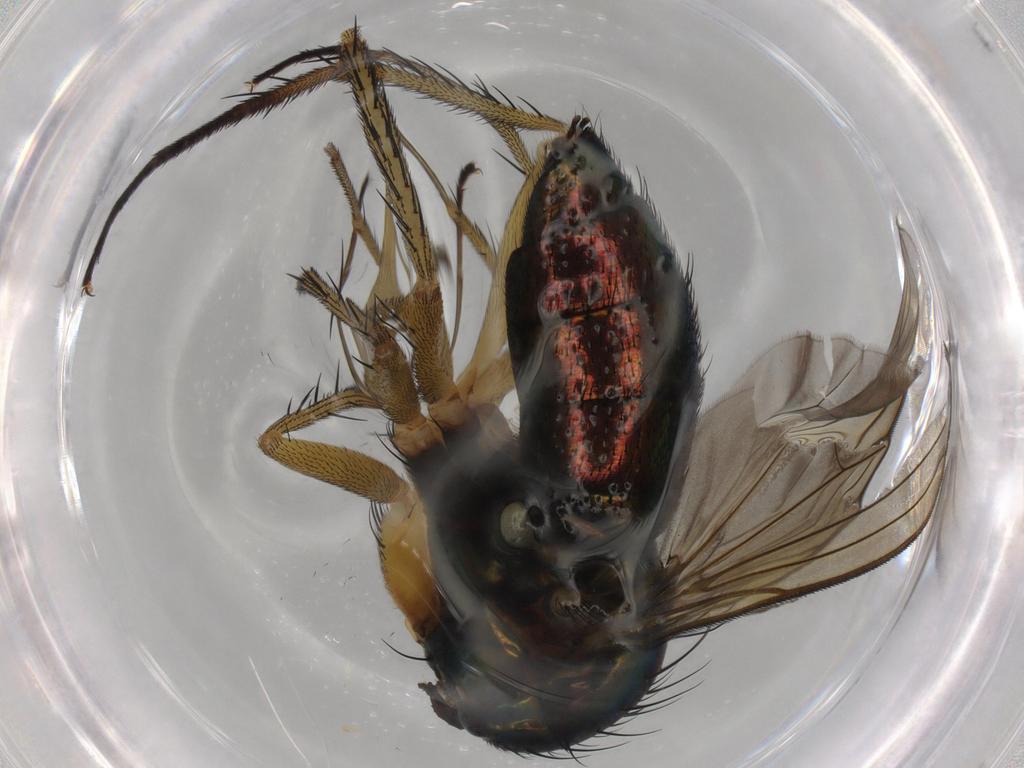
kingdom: Animalia
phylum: Arthropoda
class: Insecta
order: Diptera
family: Dolichopodidae
